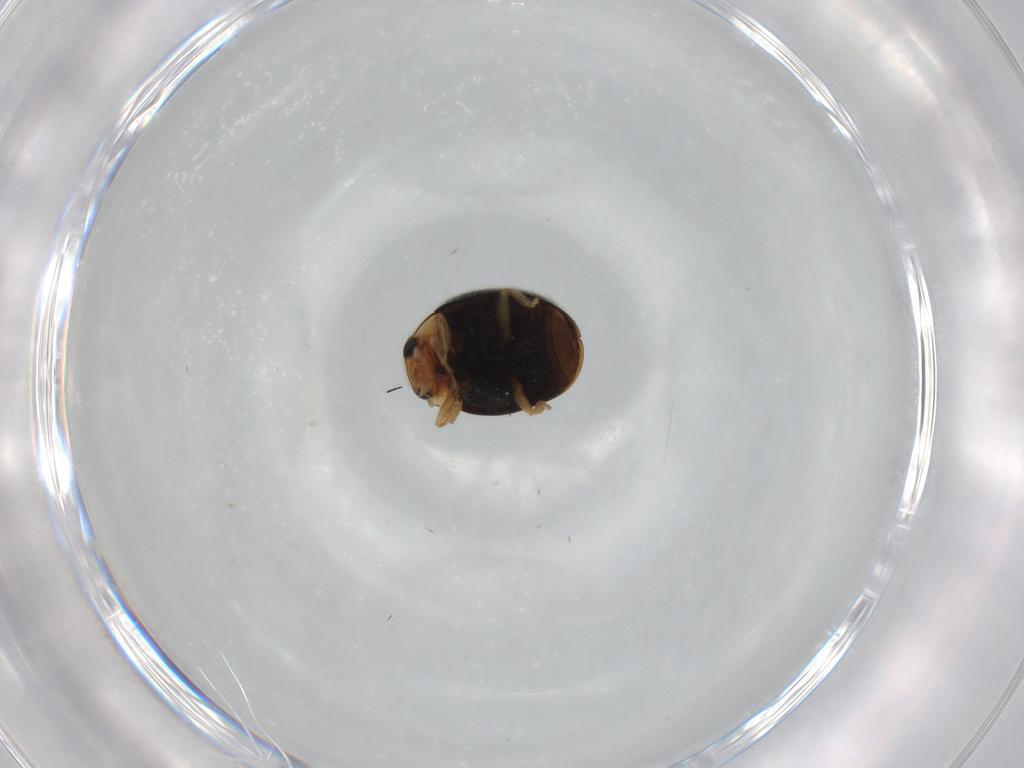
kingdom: Animalia
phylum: Arthropoda
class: Insecta
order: Coleoptera
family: Staphylinidae
